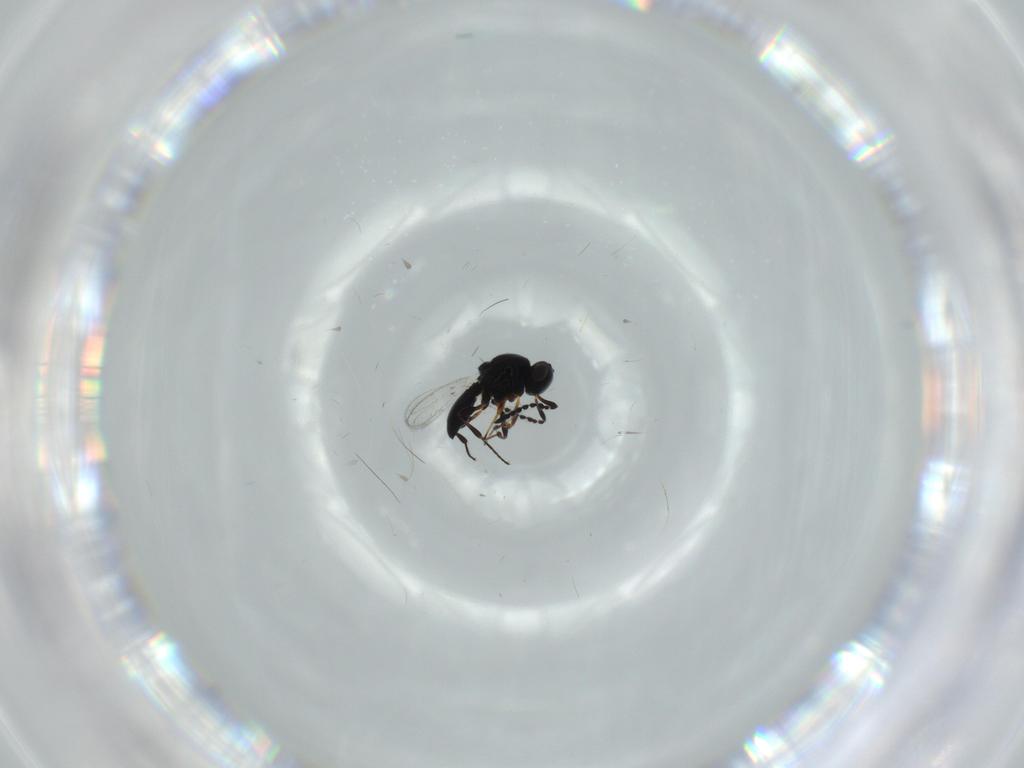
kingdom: Animalia
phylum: Arthropoda
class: Insecta
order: Hymenoptera
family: Platygastridae
